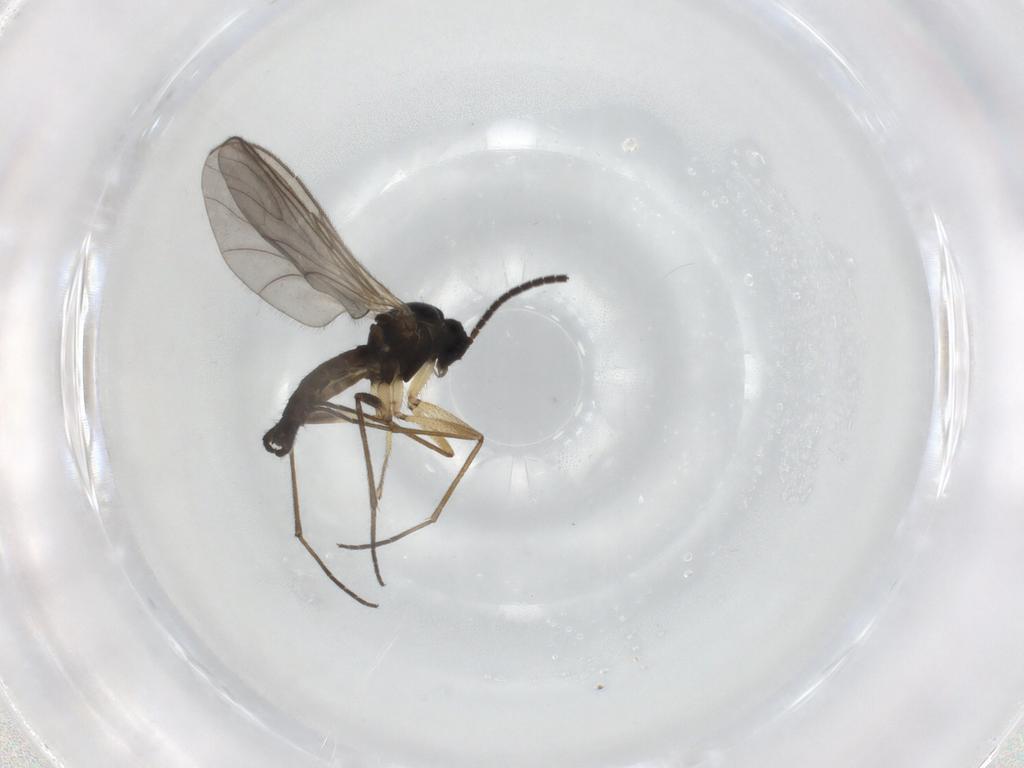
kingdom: Animalia
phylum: Arthropoda
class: Insecta
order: Diptera
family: Sciaridae
